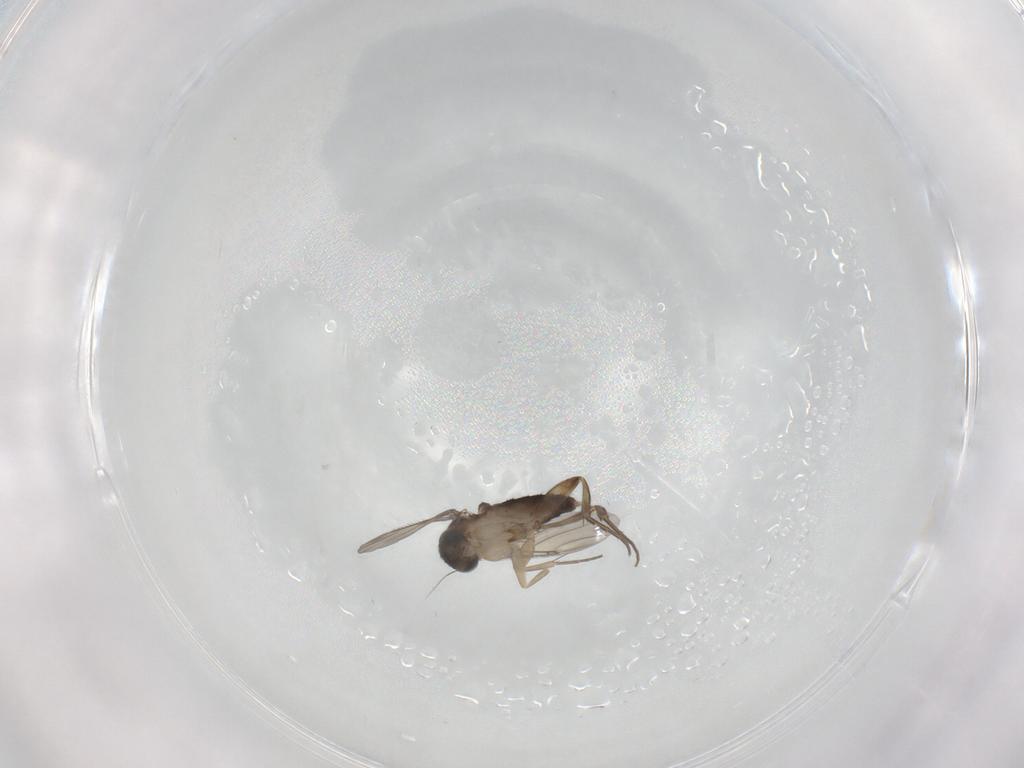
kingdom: Animalia
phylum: Arthropoda
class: Insecta
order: Diptera
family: Phoridae
